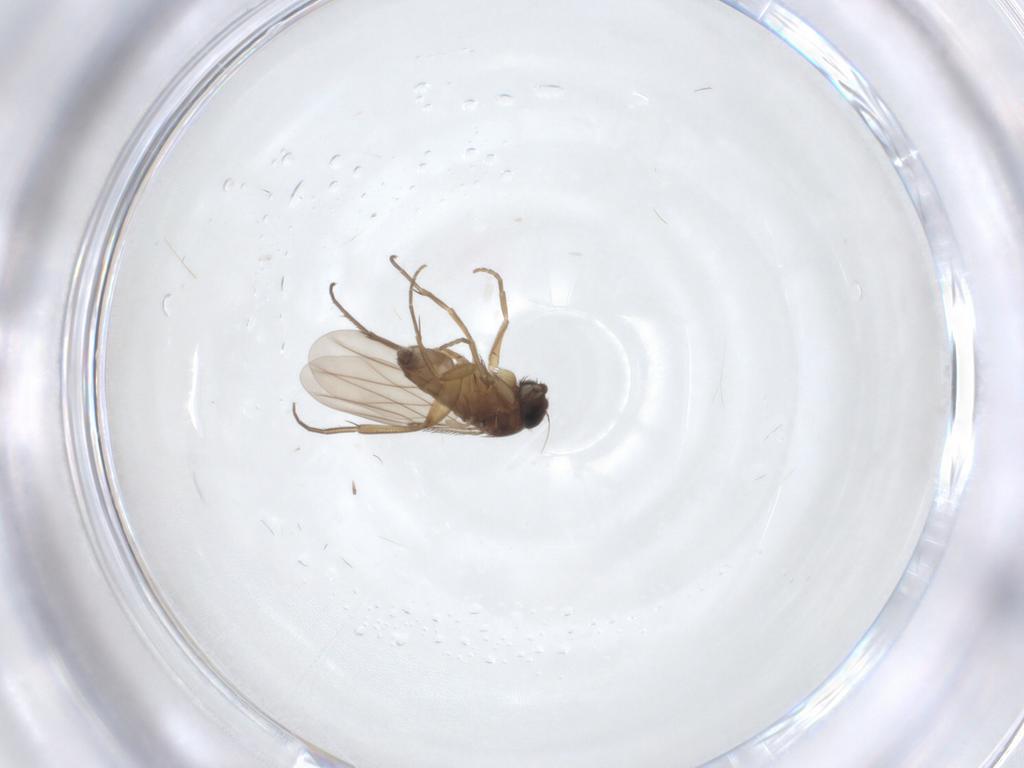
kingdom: Animalia
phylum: Arthropoda
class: Insecta
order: Diptera
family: Phoridae
